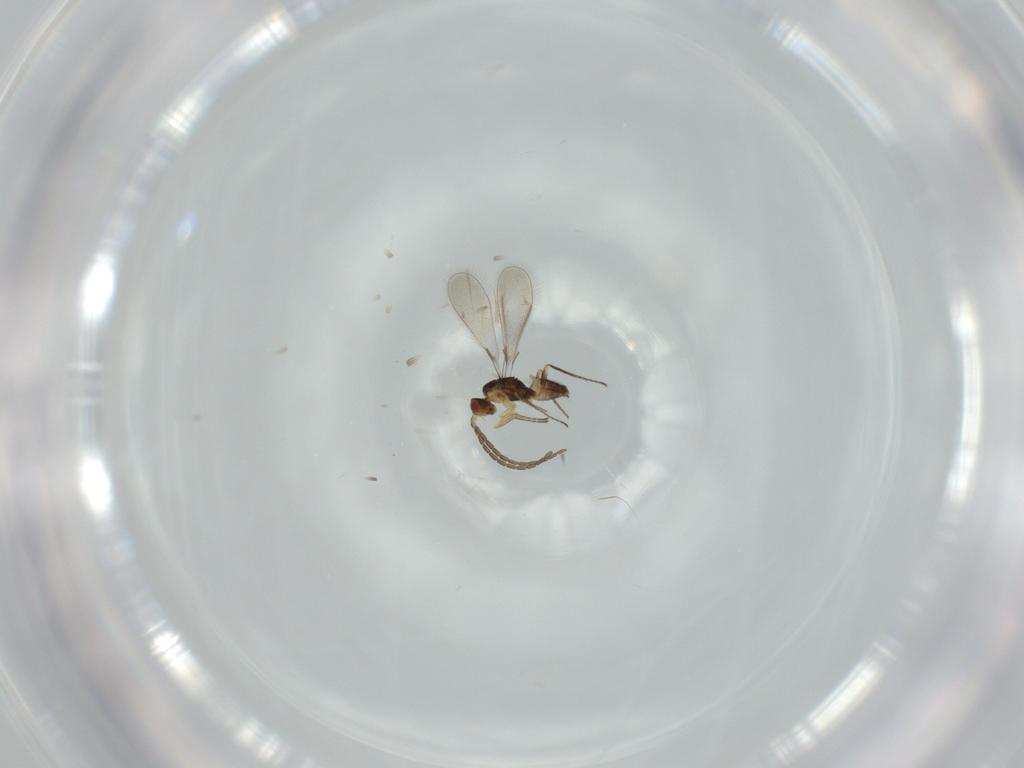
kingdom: Animalia
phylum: Arthropoda
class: Insecta
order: Hymenoptera
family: Mymaridae
